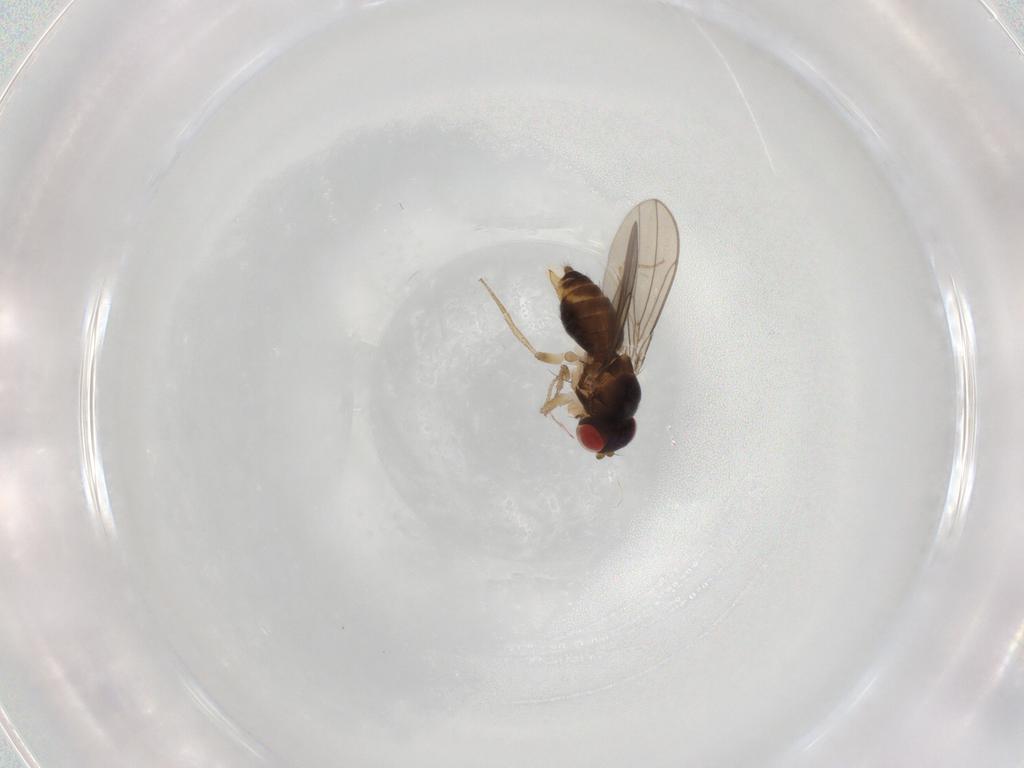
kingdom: Animalia
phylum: Arthropoda
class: Insecta
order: Diptera
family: Drosophilidae
